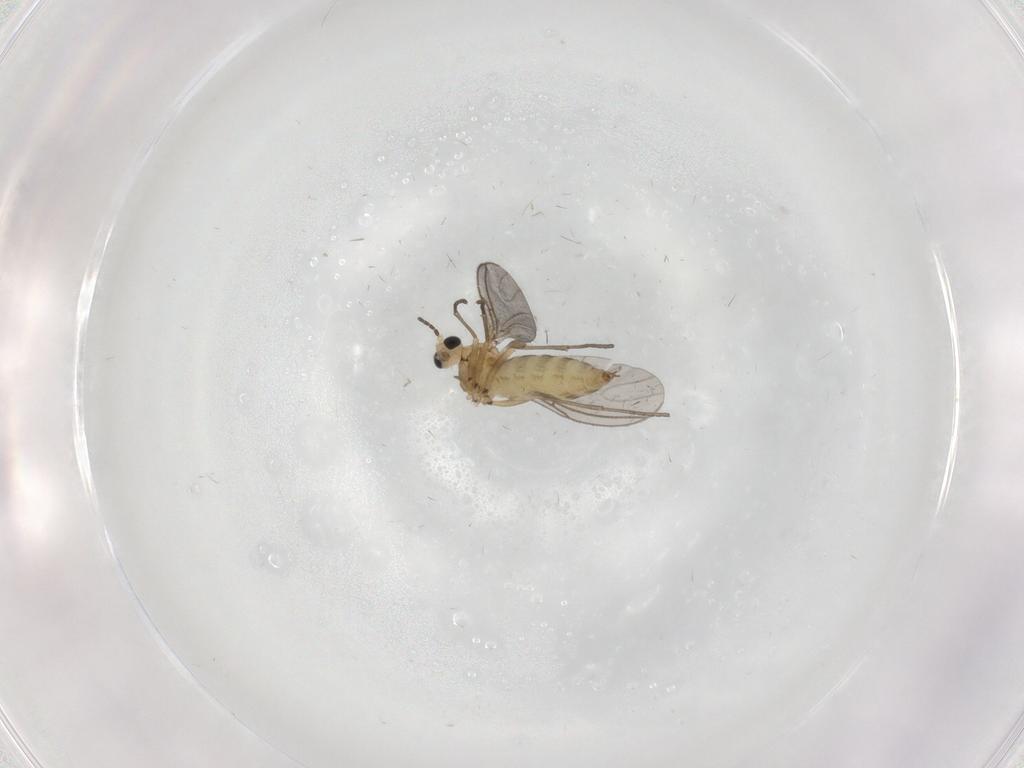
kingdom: Animalia
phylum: Arthropoda
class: Insecta
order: Diptera
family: Sciaridae
